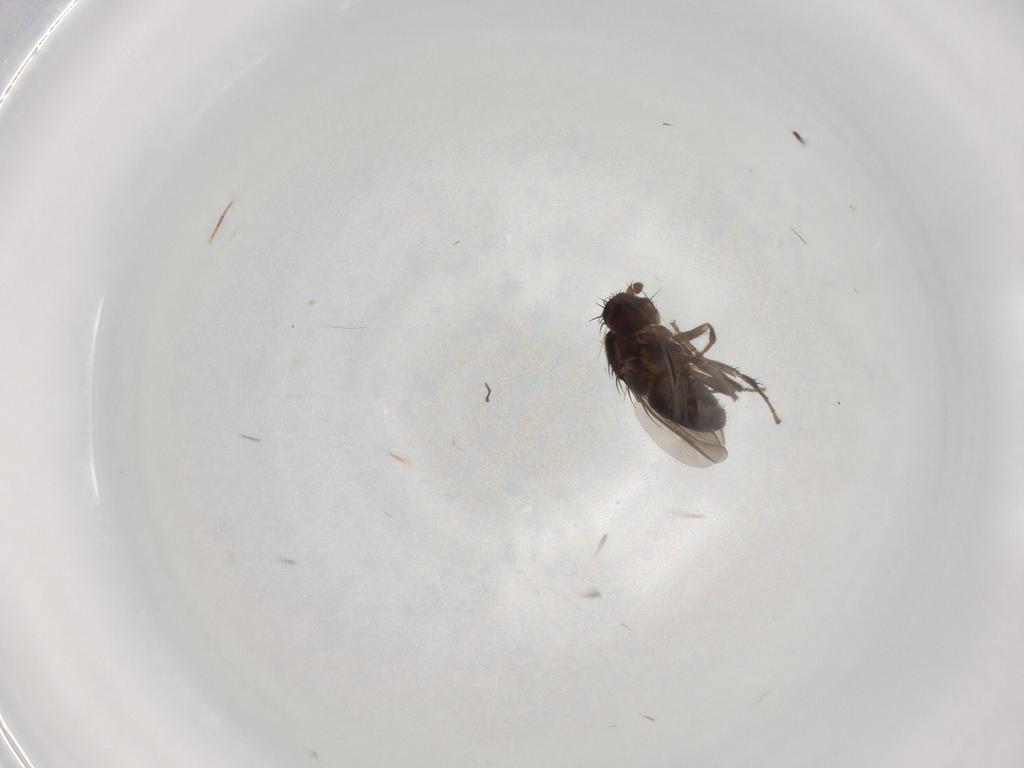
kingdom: Animalia
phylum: Arthropoda
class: Insecta
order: Diptera
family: Sphaeroceridae
